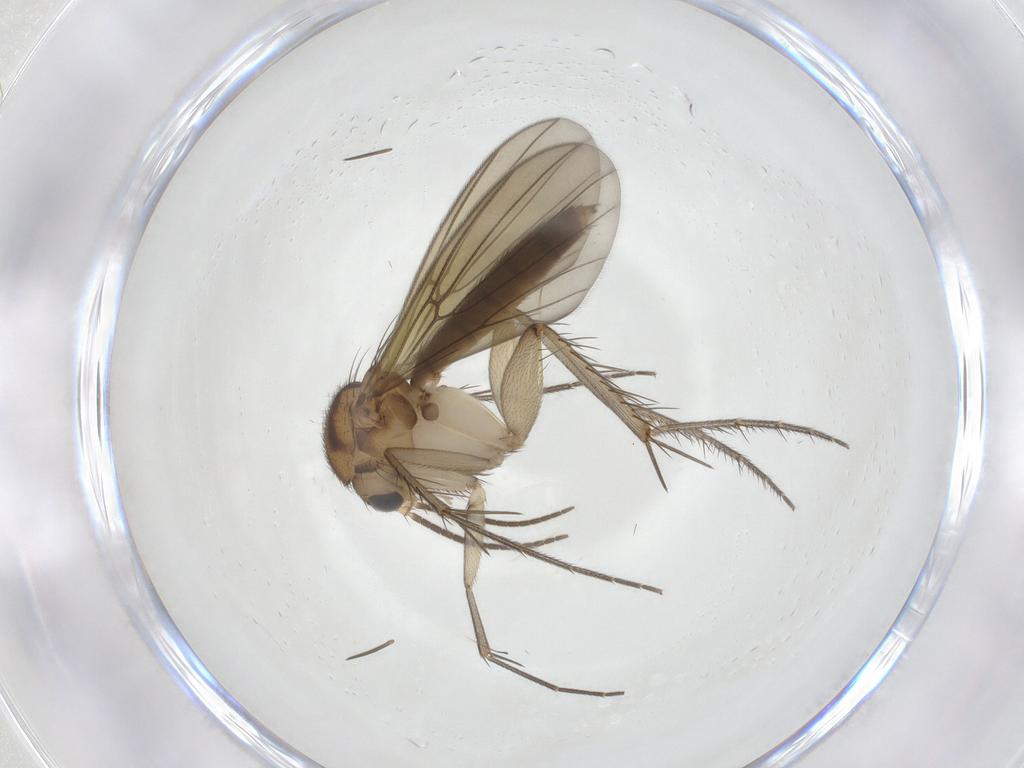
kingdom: Animalia
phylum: Arthropoda
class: Insecta
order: Diptera
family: Mycetophilidae
